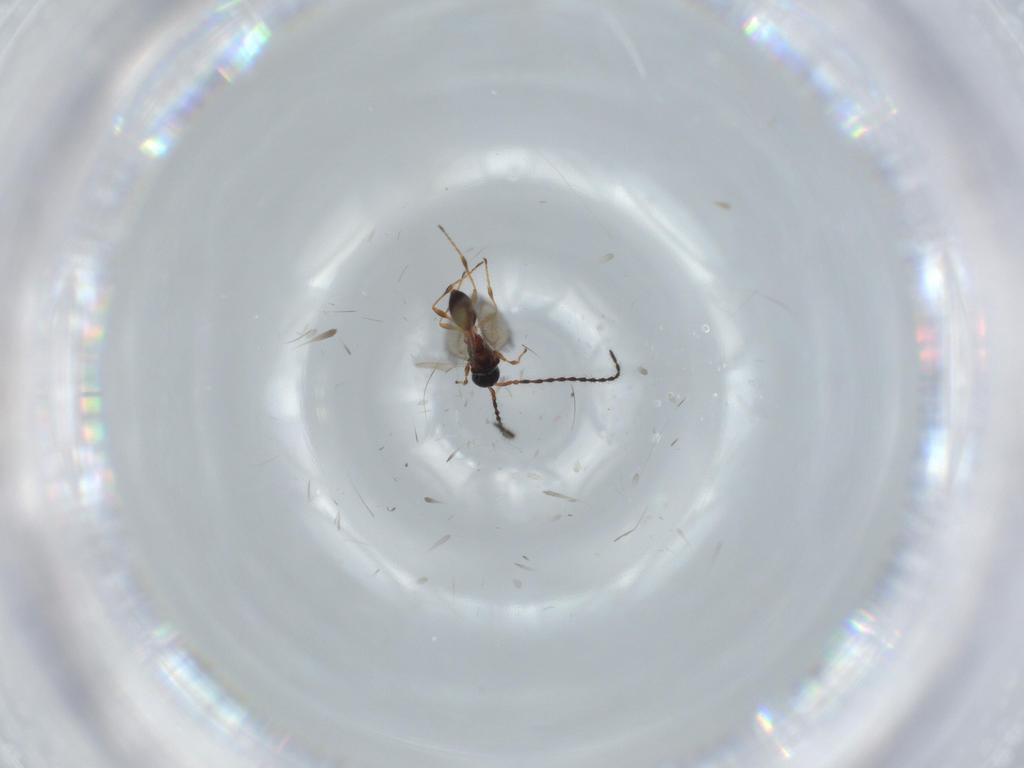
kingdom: Animalia
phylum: Arthropoda
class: Insecta
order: Hymenoptera
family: Diapriidae
